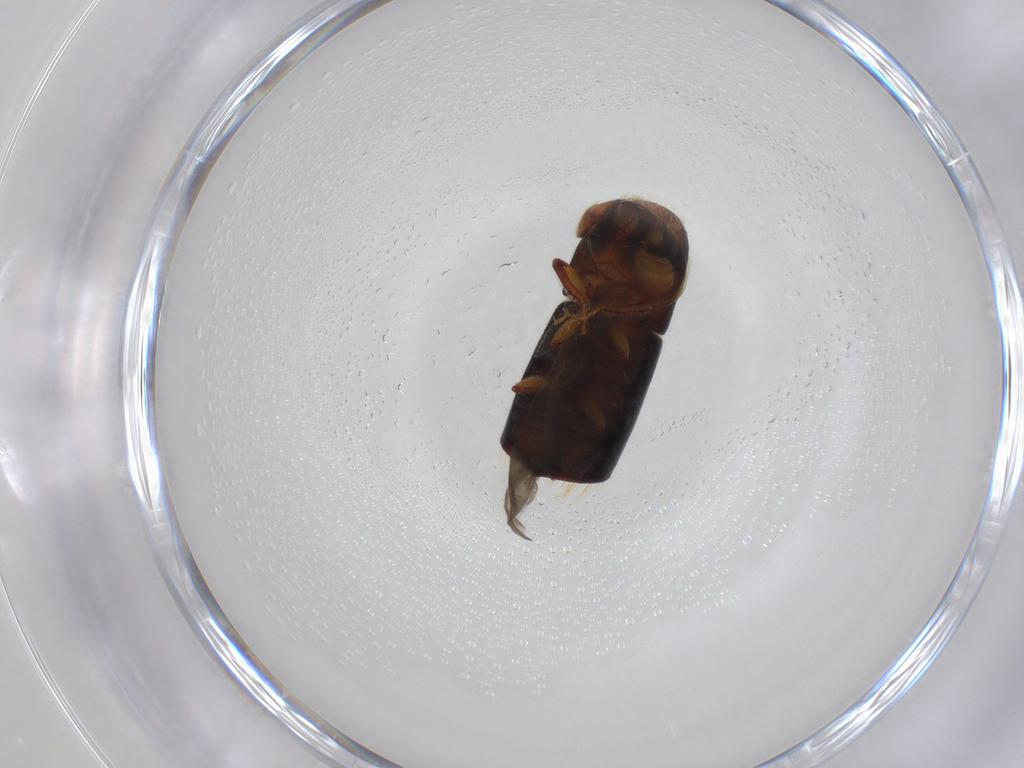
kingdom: Animalia
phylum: Arthropoda
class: Insecta
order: Coleoptera
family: Curculionidae
